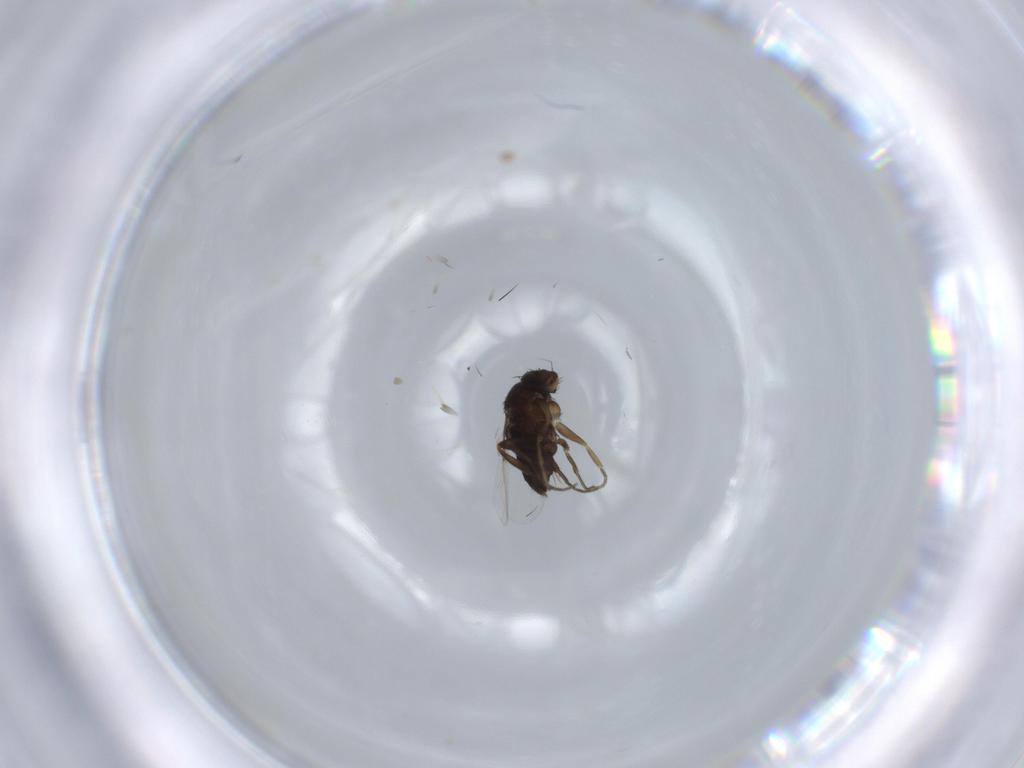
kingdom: Animalia
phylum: Arthropoda
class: Insecta
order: Diptera
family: Phoridae
